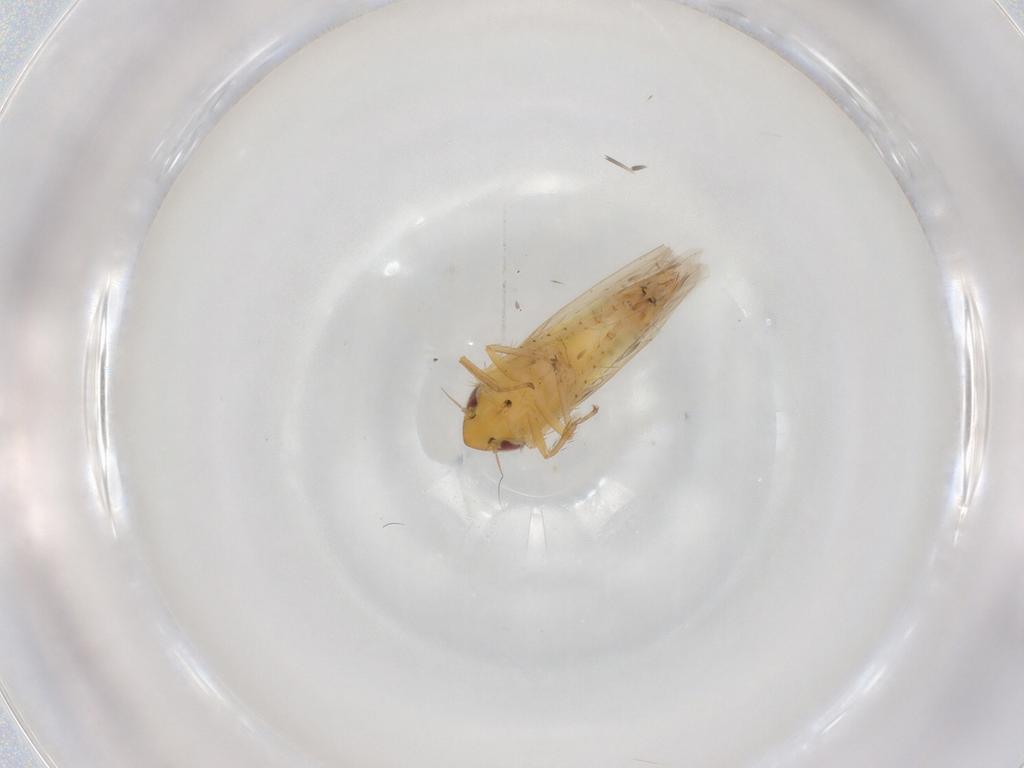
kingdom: Animalia
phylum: Arthropoda
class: Insecta
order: Hemiptera
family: Cicadellidae
